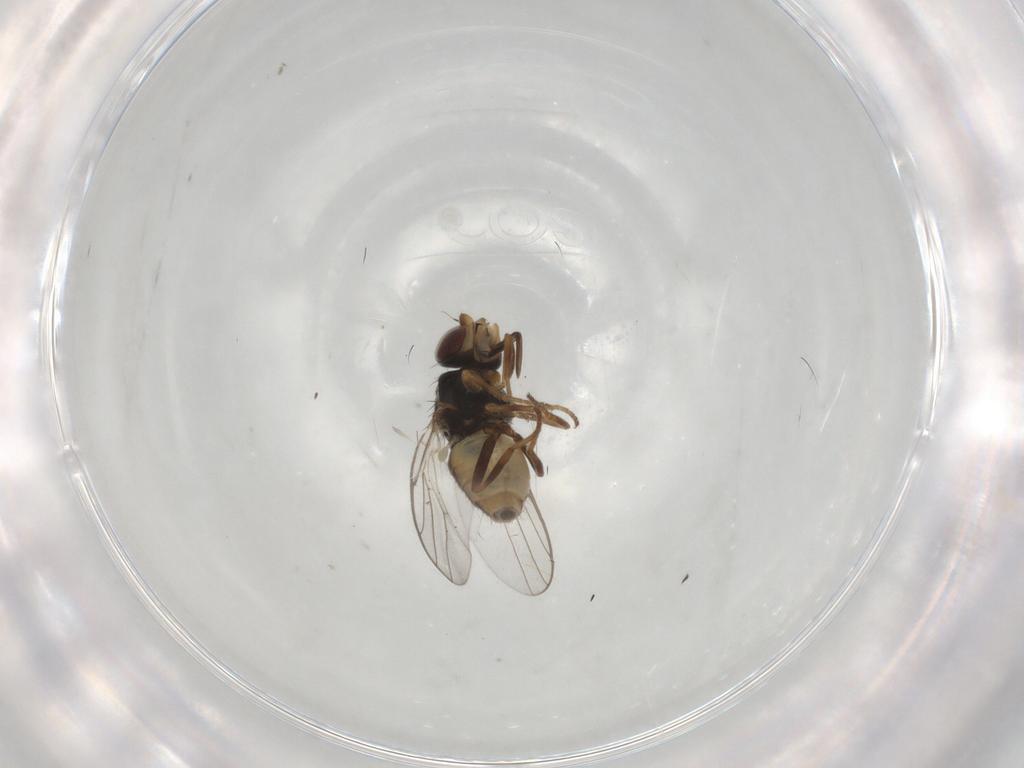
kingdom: Animalia
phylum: Arthropoda
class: Insecta
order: Diptera
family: Chloropidae
